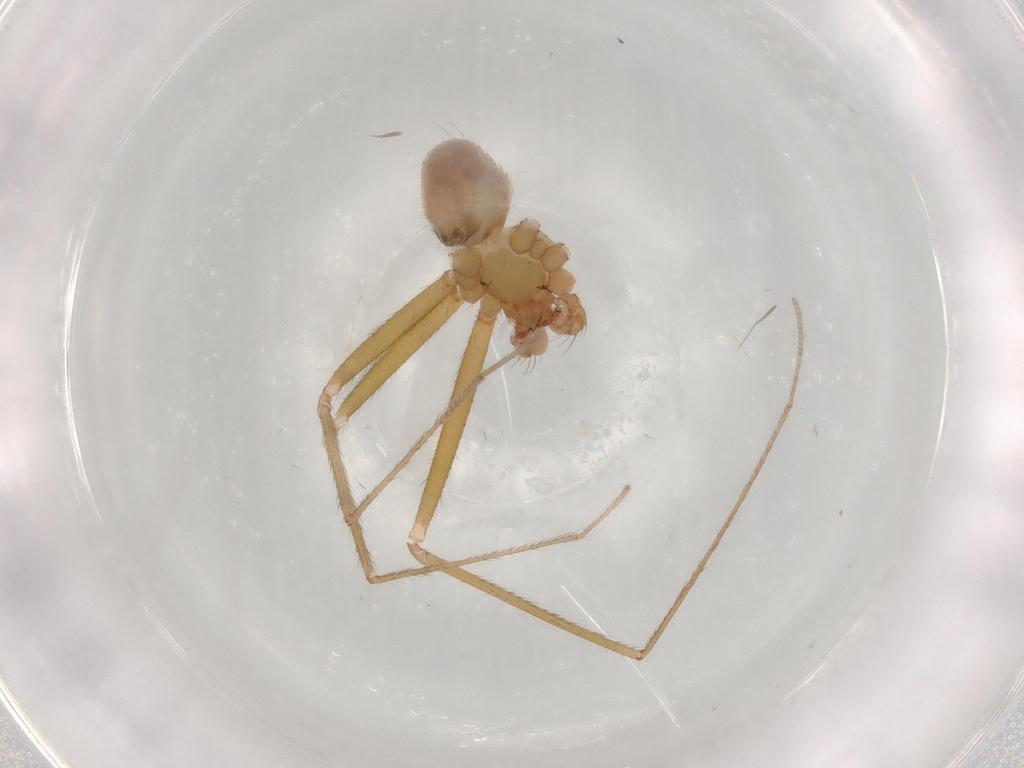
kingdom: Animalia
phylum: Arthropoda
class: Arachnida
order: Araneae
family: Pholcidae
